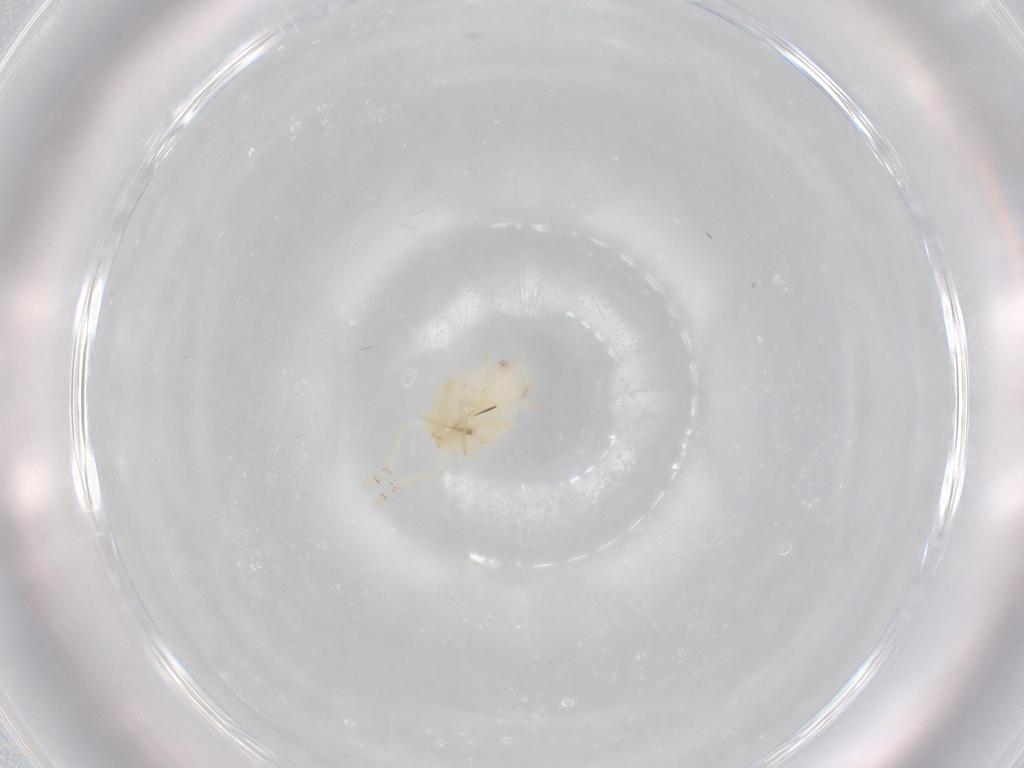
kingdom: Animalia
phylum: Arthropoda
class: Insecta
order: Hemiptera
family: Flatidae
